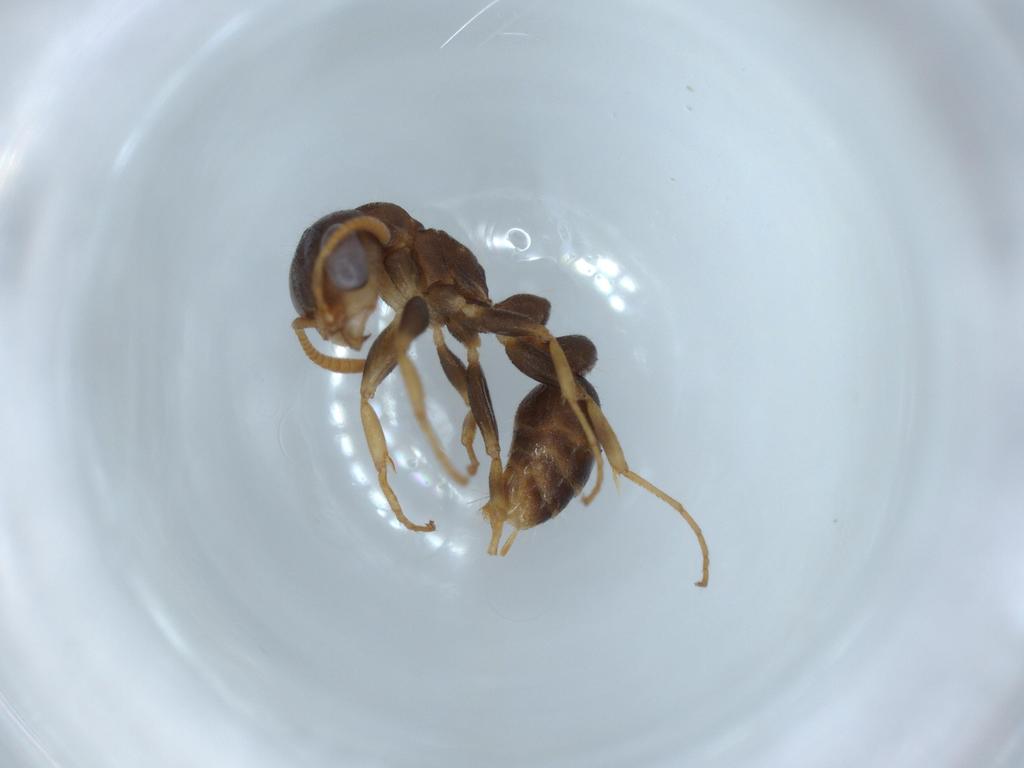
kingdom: Animalia
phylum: Arthropoda
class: Insecta
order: Hymenoptera
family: Formicidae
